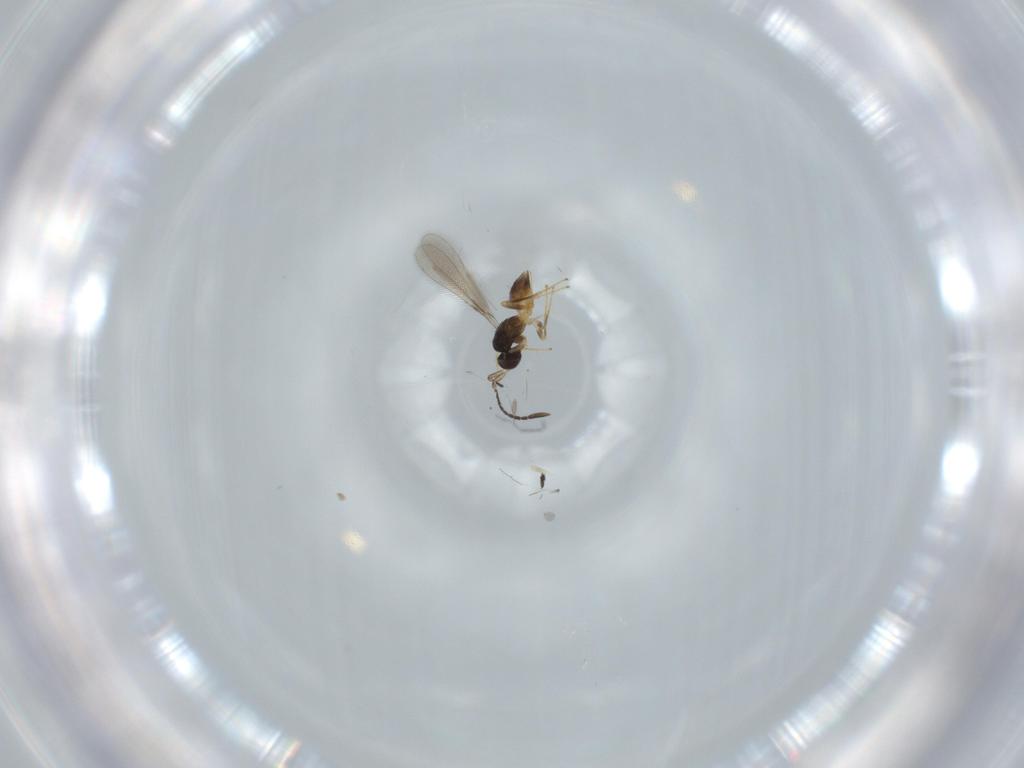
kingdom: Animalia
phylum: Arthropoda
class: Insecta
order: Hymenoptera
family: Mymaridae
